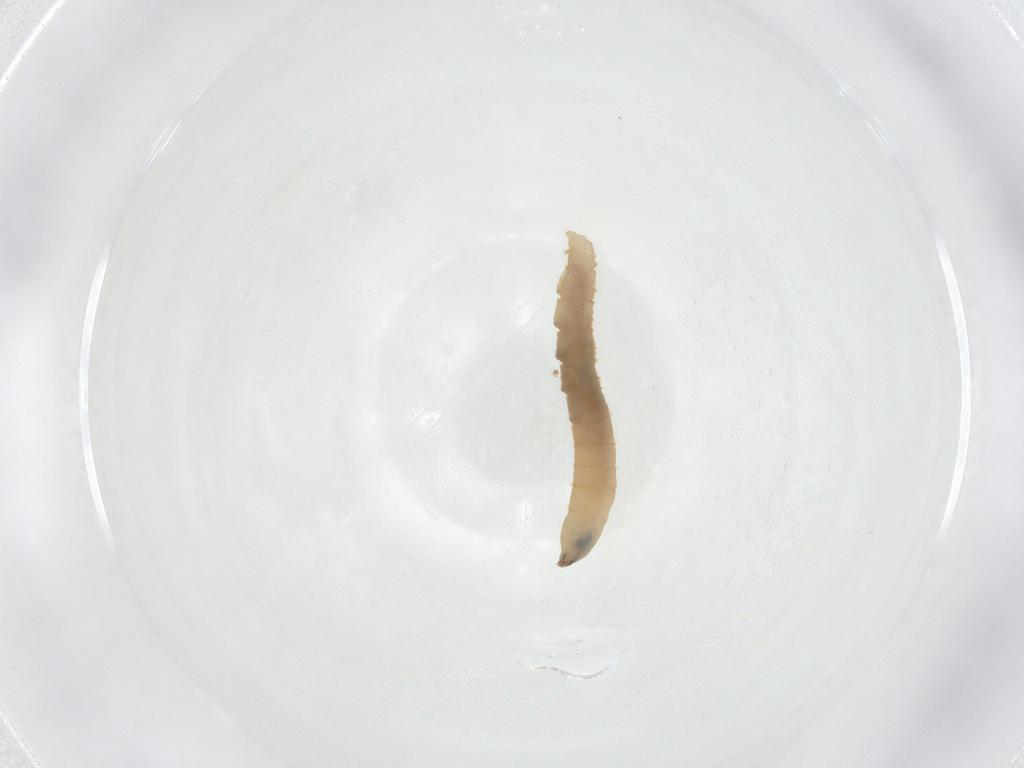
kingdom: Animalia
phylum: Arthropoda
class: Insecta
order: Diptera
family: Pediciidae
